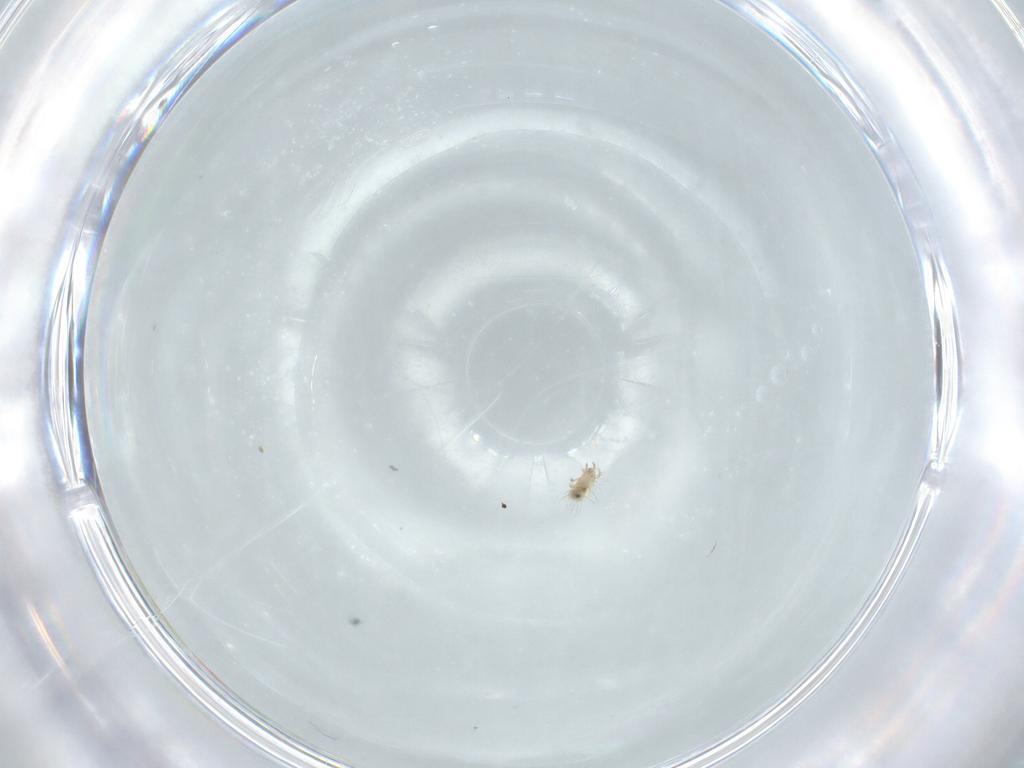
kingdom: Animalia
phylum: Arthropoda
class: Arachnida
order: Sarcoptiformes
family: Mochlozetidae
